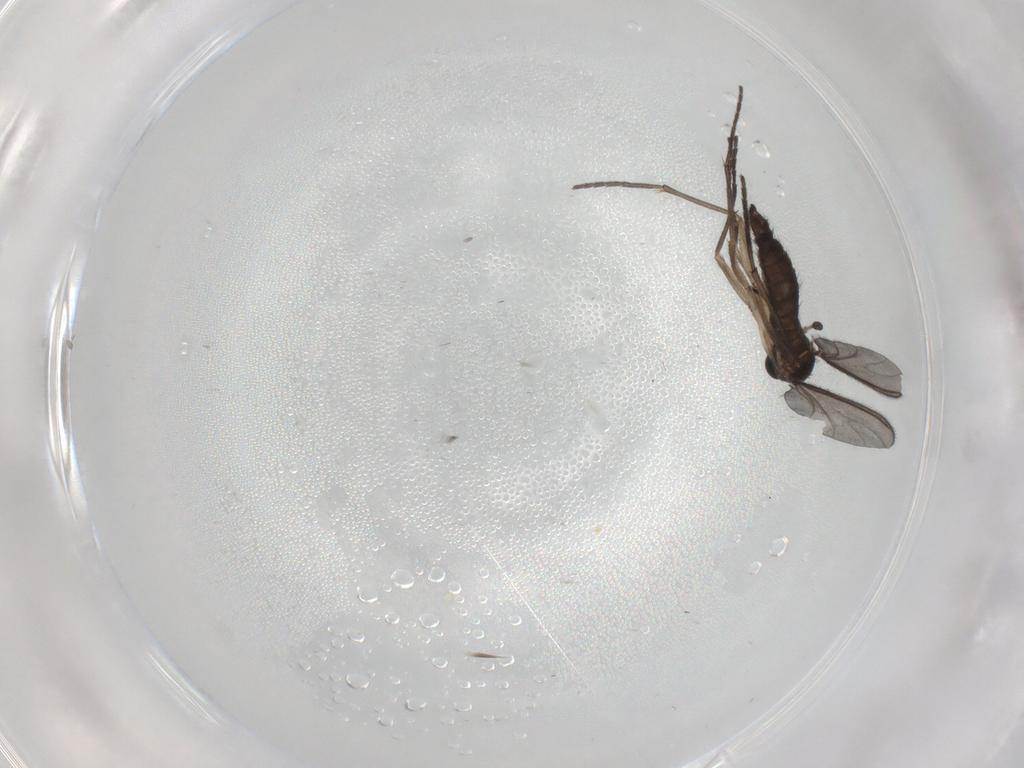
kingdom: Animalia
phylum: Arthropoda
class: Insecta
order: Diptera
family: Sciaridae
